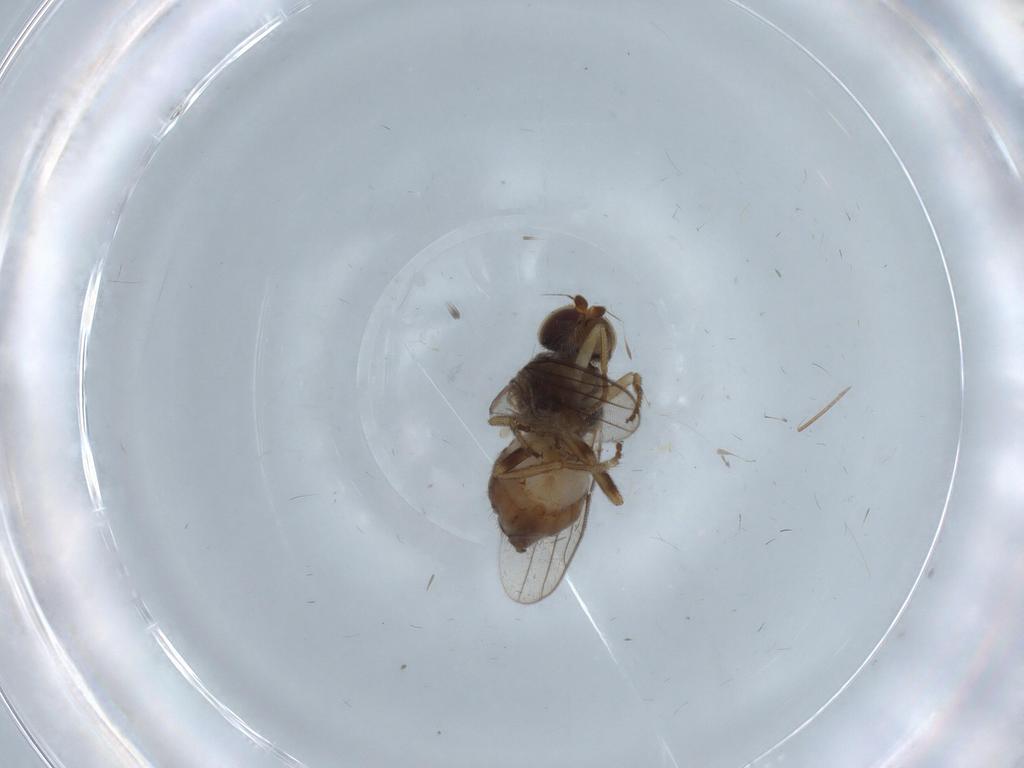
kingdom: Animalia
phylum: Arthropoda
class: Insecta
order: Diptera
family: Chloropidae
